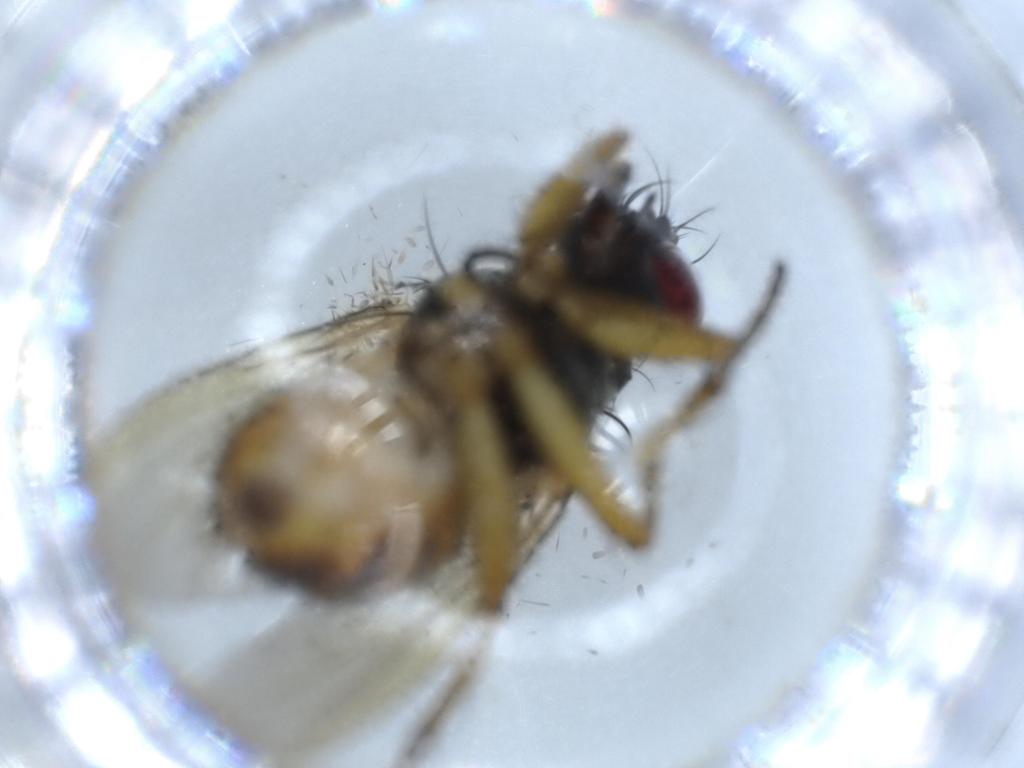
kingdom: Animalia
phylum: Arthropoda
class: Insecta
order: Diptera
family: Muscidae
